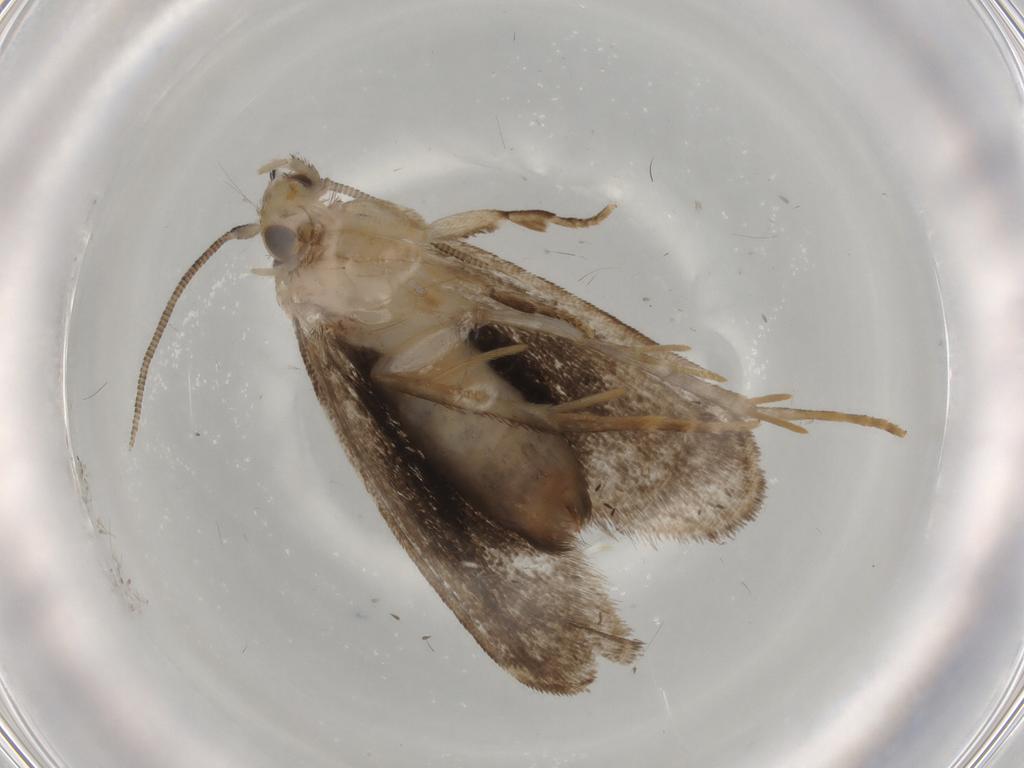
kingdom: Animalia
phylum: Arthropoda
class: Insecta
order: Lepidoptera
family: Dryadaulidae
